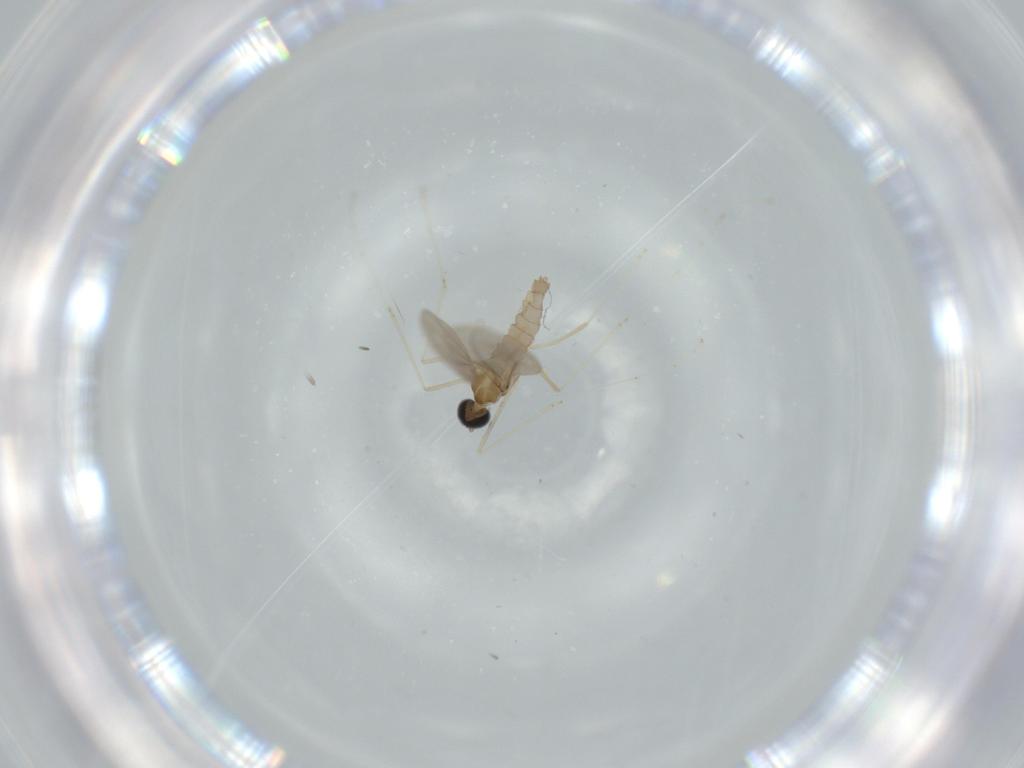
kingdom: Animalia
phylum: Arthropoda
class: Insecta
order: Diptera
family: Cecidomyiidae
